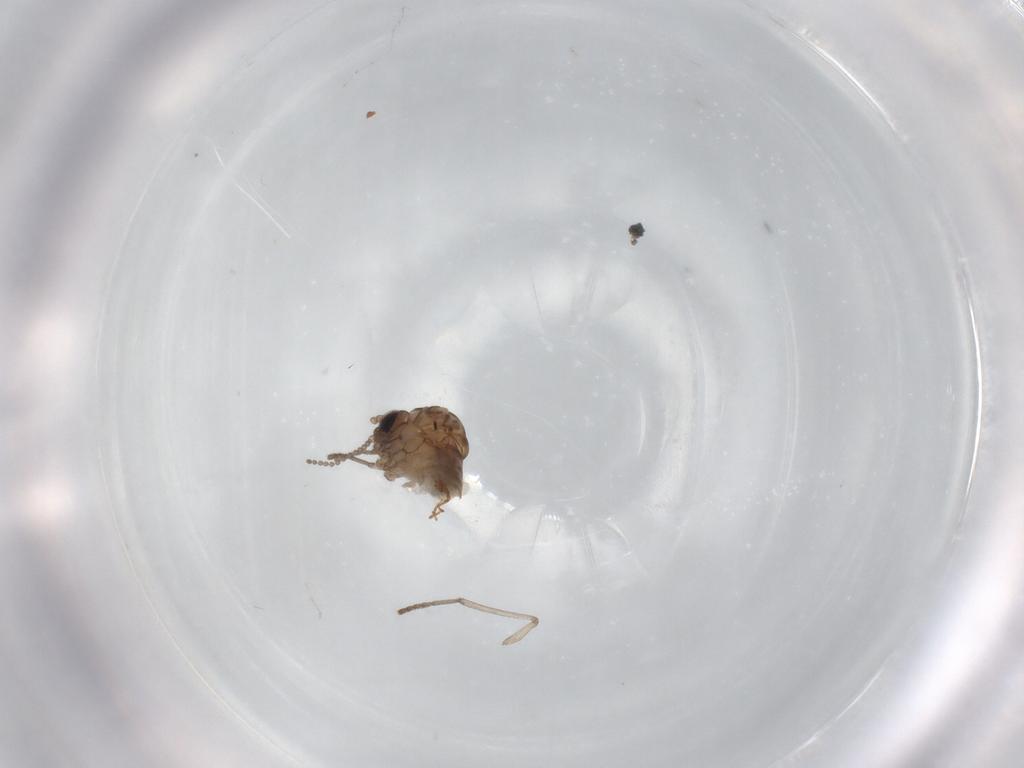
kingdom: Animalia
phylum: Arthropoda
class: Insecta
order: Diptera
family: Psychodidae
